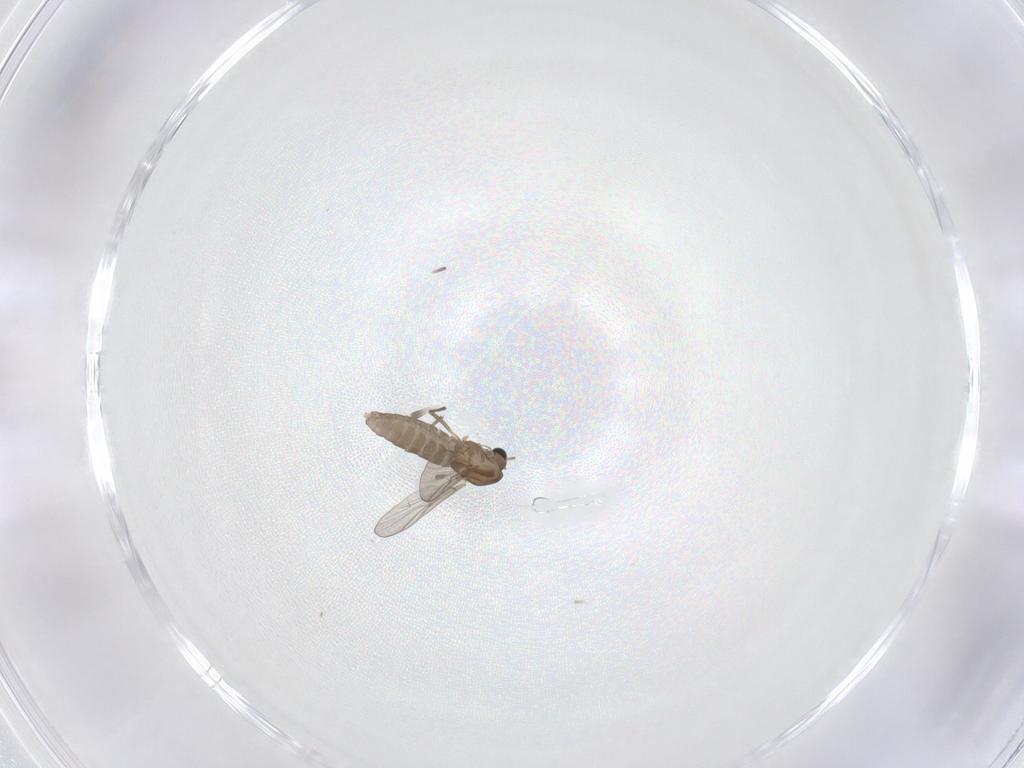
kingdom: Animalia
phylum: Arthropoda
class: Insecta
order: Diptera
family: Chironomidae
